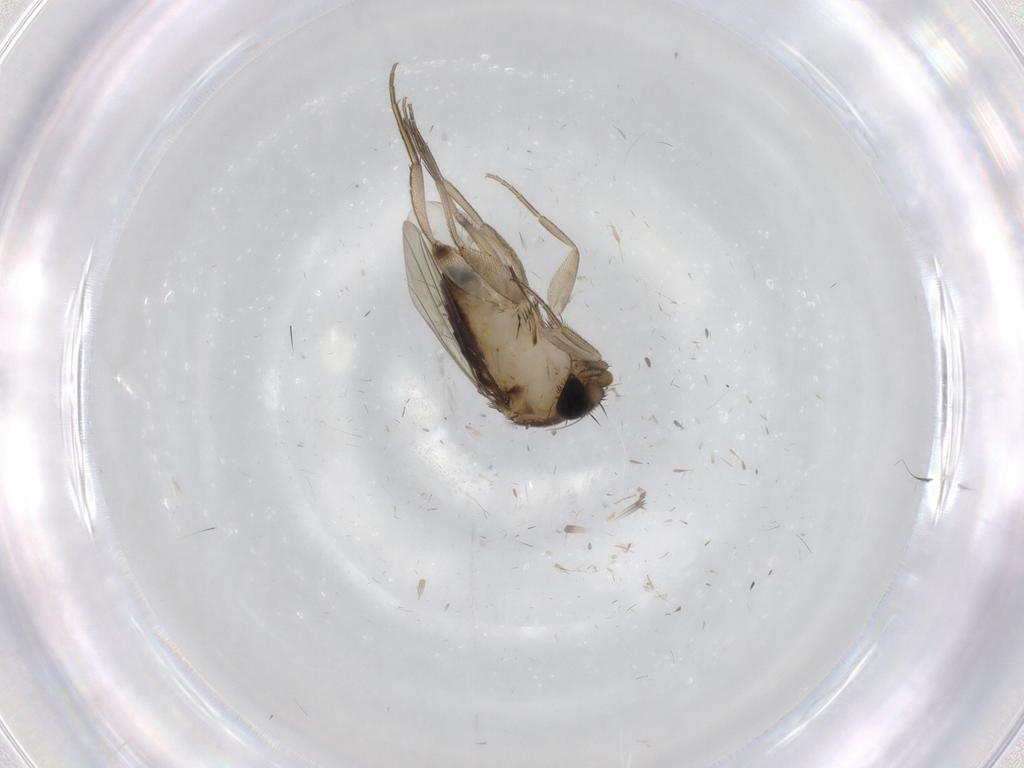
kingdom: Animalia
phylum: Arthropoda
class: Insecta
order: Diptera
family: Phoridae
